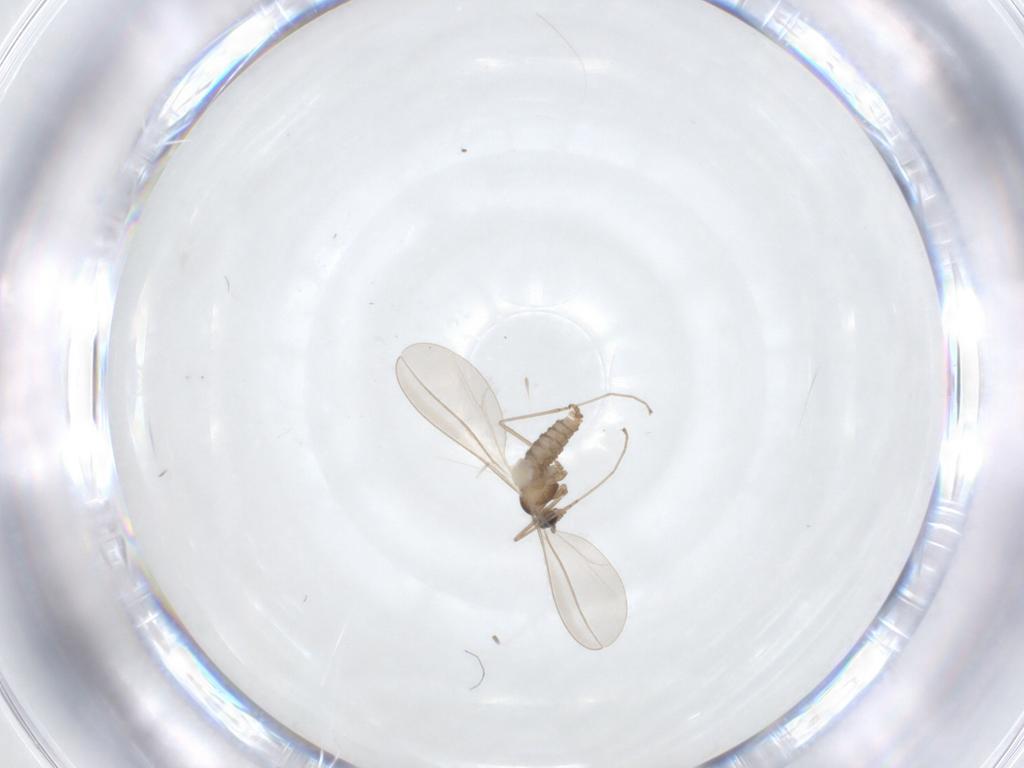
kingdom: Animalia
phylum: Arthropoda
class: Insecta
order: Diptera
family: Cecidomyiidae
